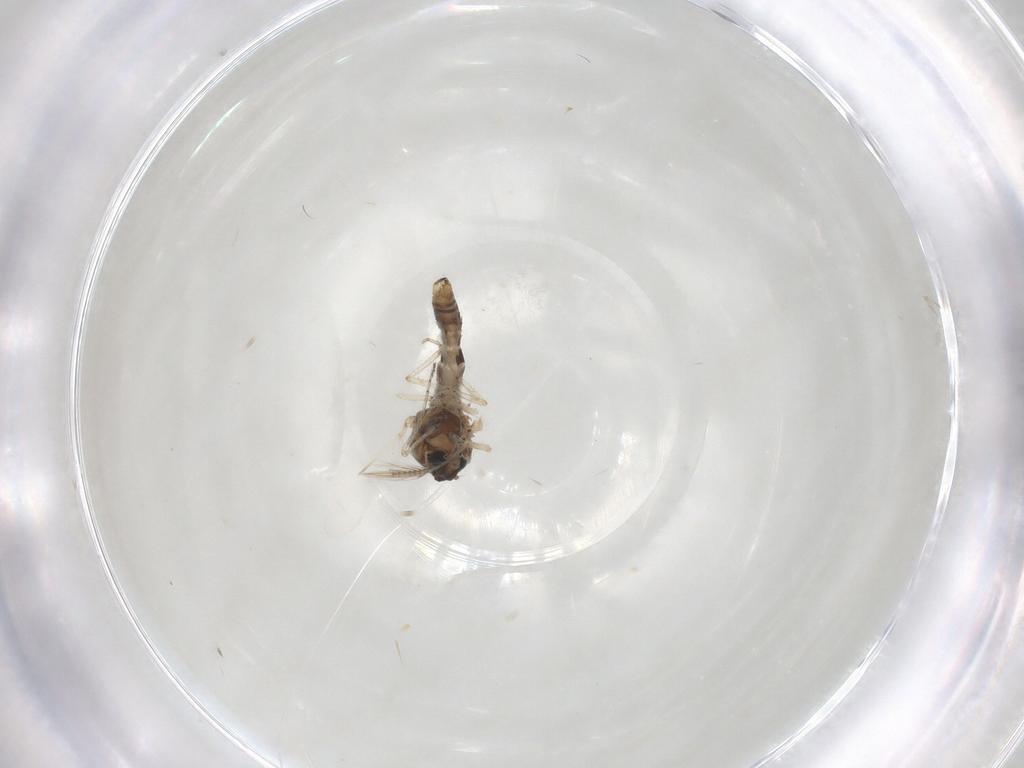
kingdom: Animalia
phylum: Arthropoda
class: Insecta
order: Diptera
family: Ceratopogonidae
